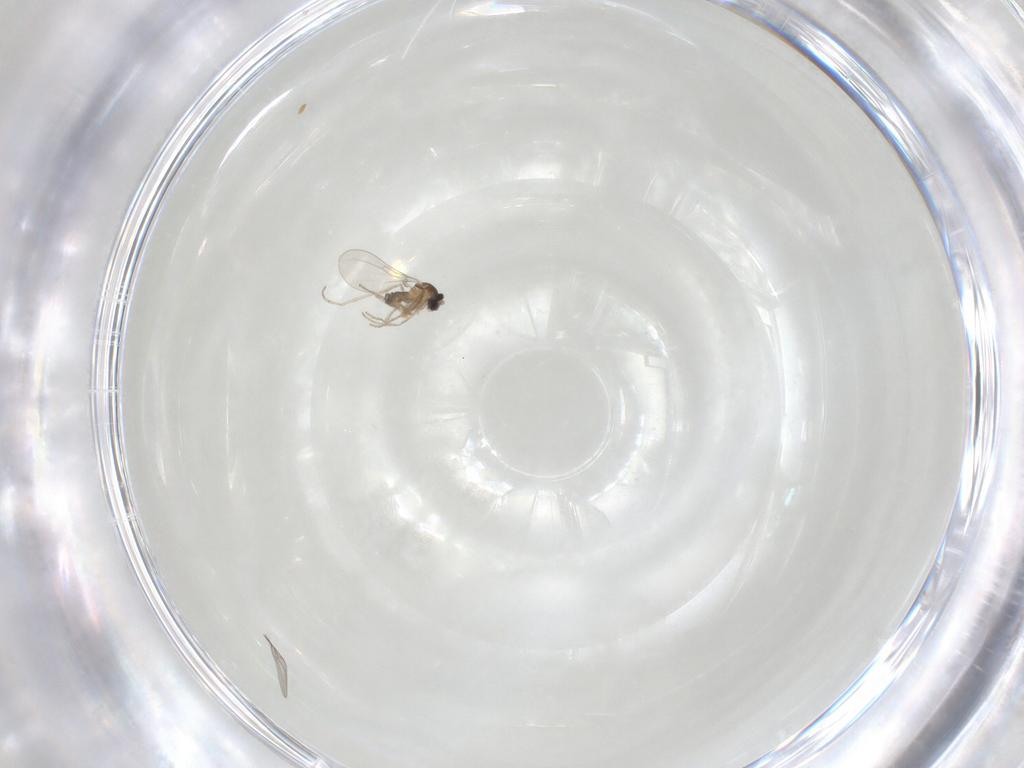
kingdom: Animalia
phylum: Arthropoda
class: Insecta
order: Diptera
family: Cecidomyiidae
